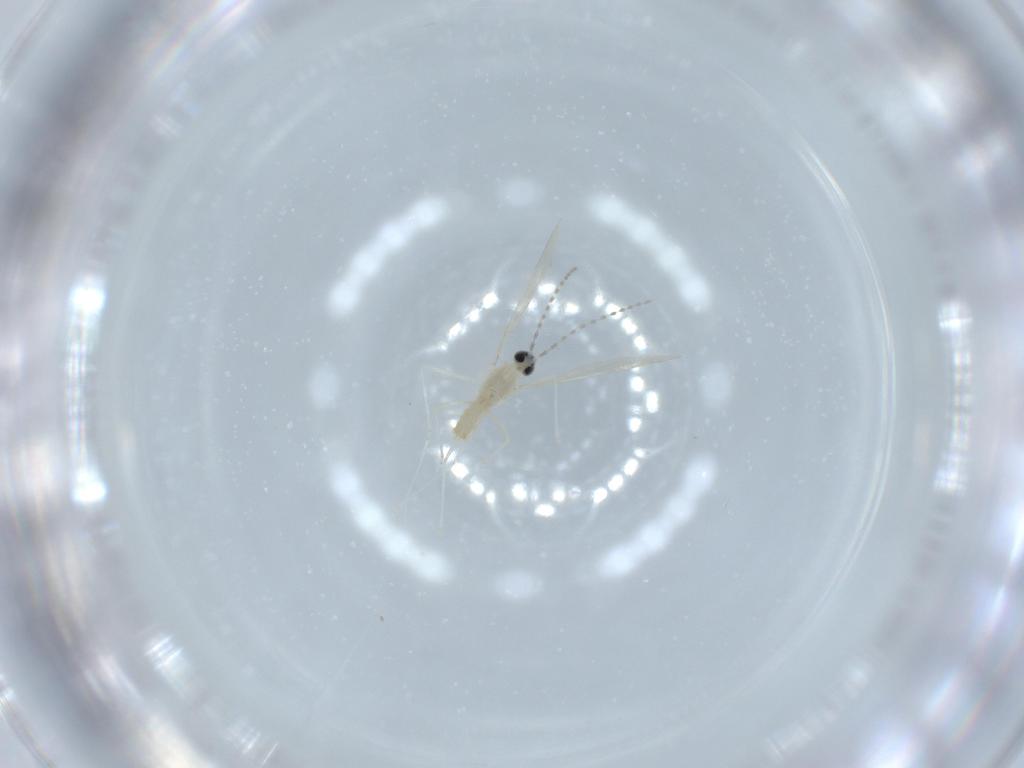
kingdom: Animalia
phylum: Arthropoda
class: Insecta
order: Diptera
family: Cecidomyiidae
